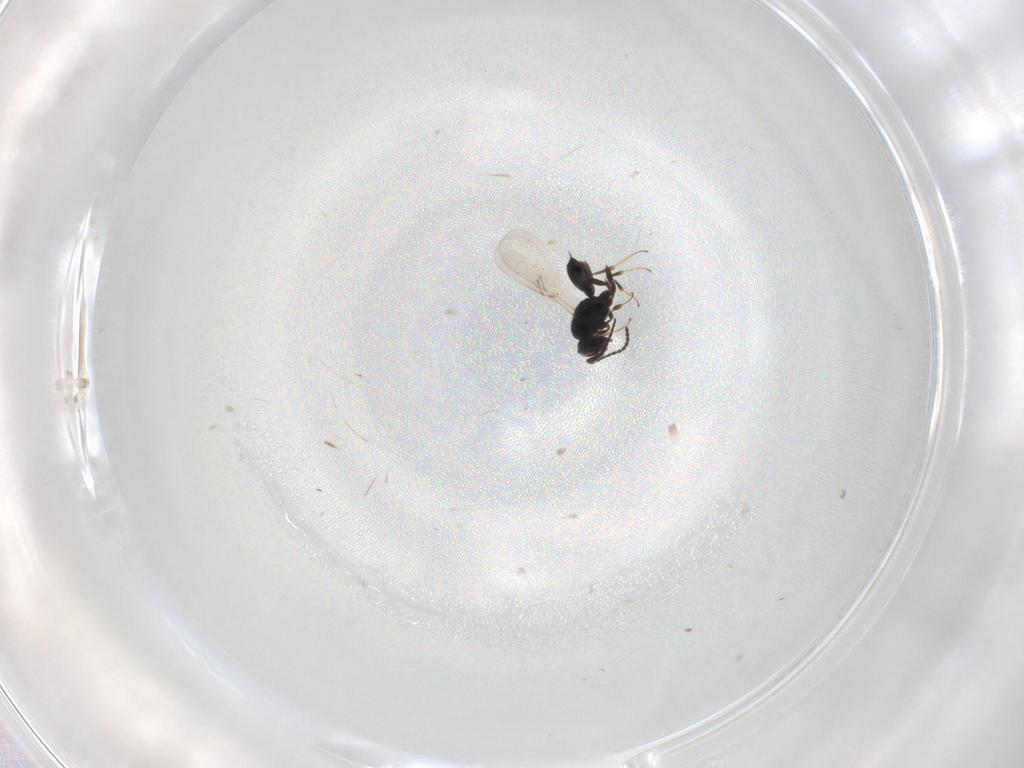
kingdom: Animalia
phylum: Arthropoda
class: Insecta
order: Hymenoptera
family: Scelionidae
